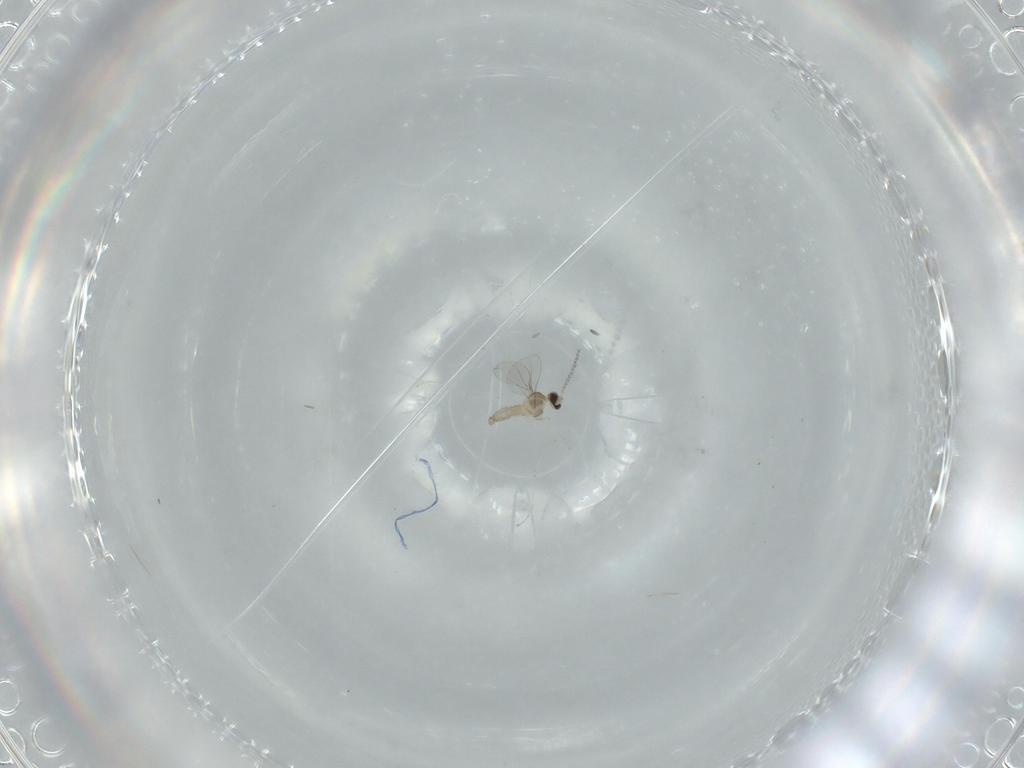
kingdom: Animalia
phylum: Arthropoda
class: Insecta
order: Diptera
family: Cecidomyiidae
